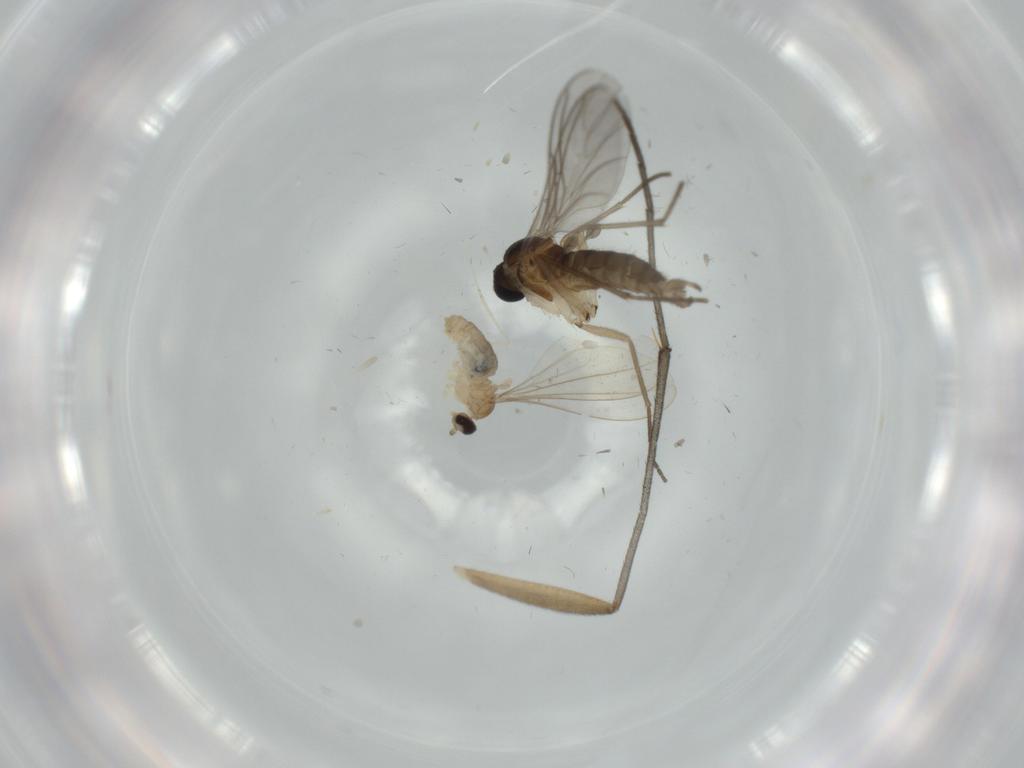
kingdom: Animalia
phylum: Arthropoda
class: Insecta
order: Diptera
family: Cecidomyiidae
